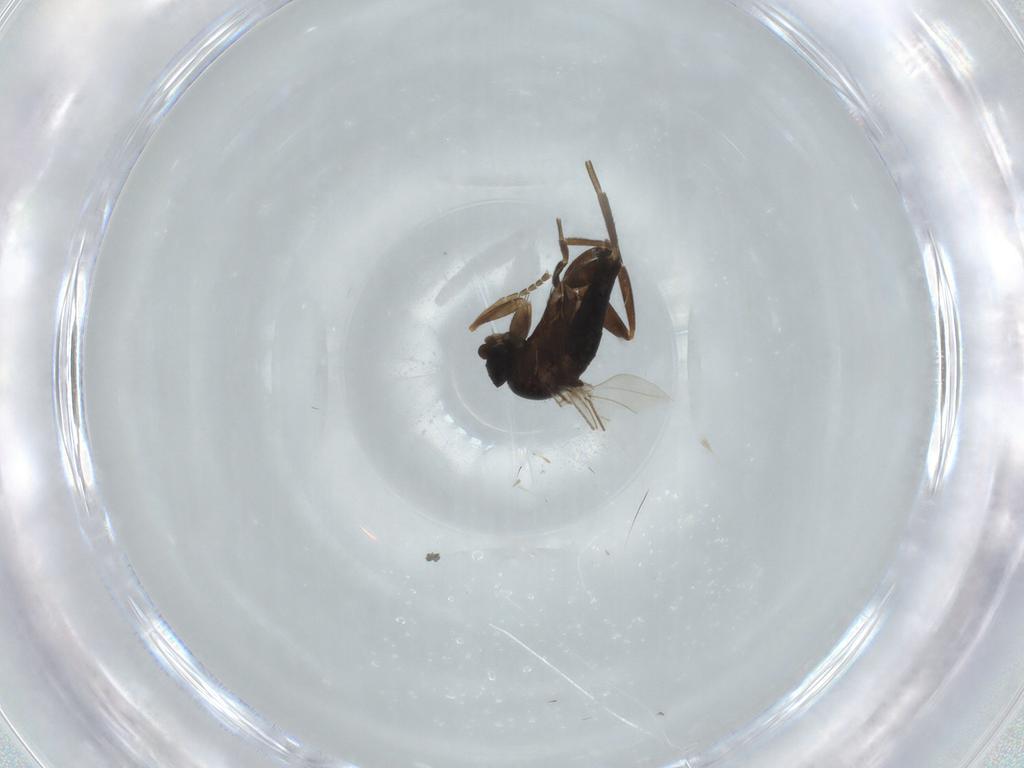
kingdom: Animalia
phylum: Arthropoda
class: Insecta
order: Diptera
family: Phoridae
